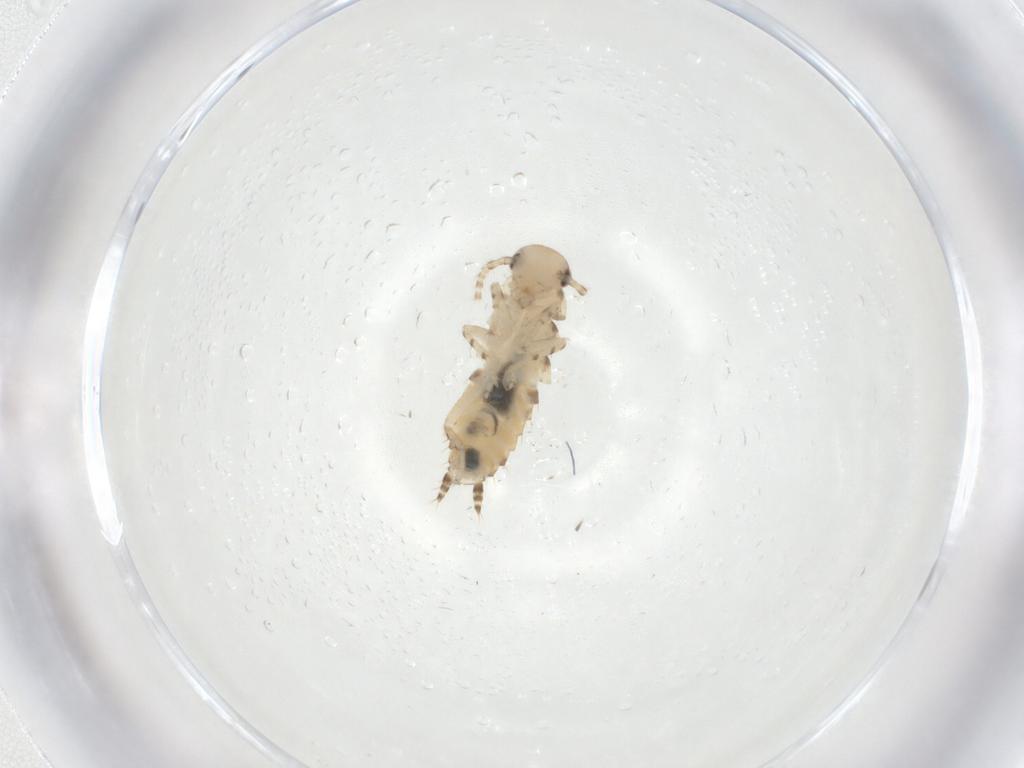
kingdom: Animalia
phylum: Arthropoda
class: Insecta
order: Blattodea
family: Ectobiidae
